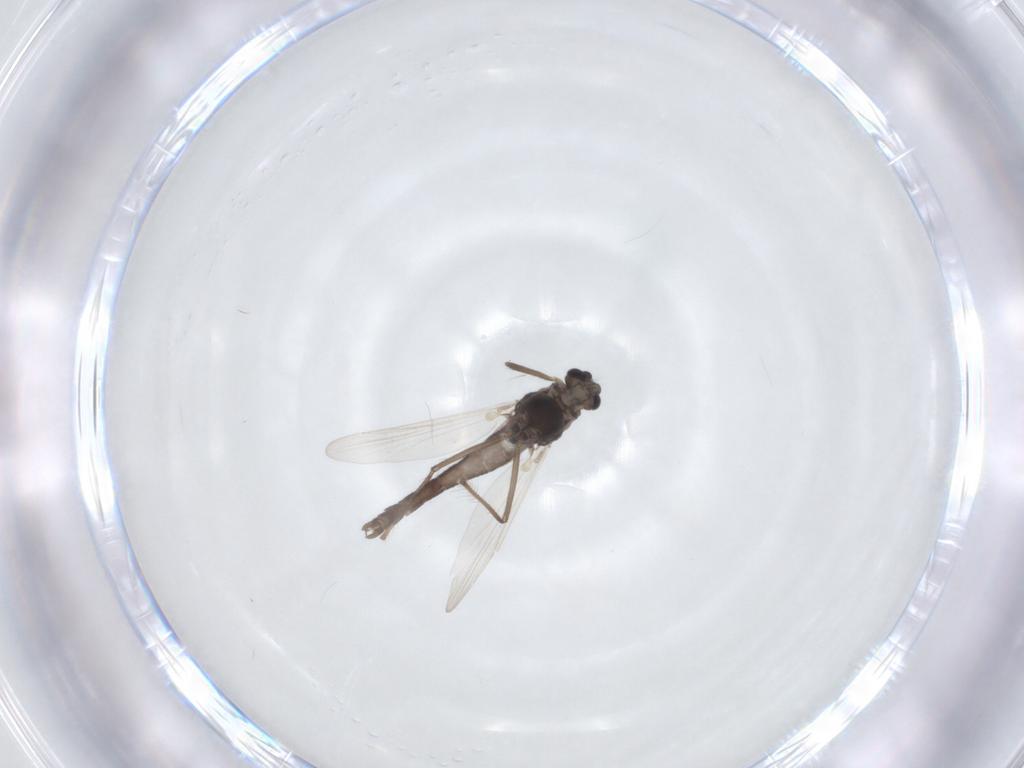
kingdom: Animalia
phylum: Arthropoda
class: Insecta
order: Diptera
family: Chironomidae
